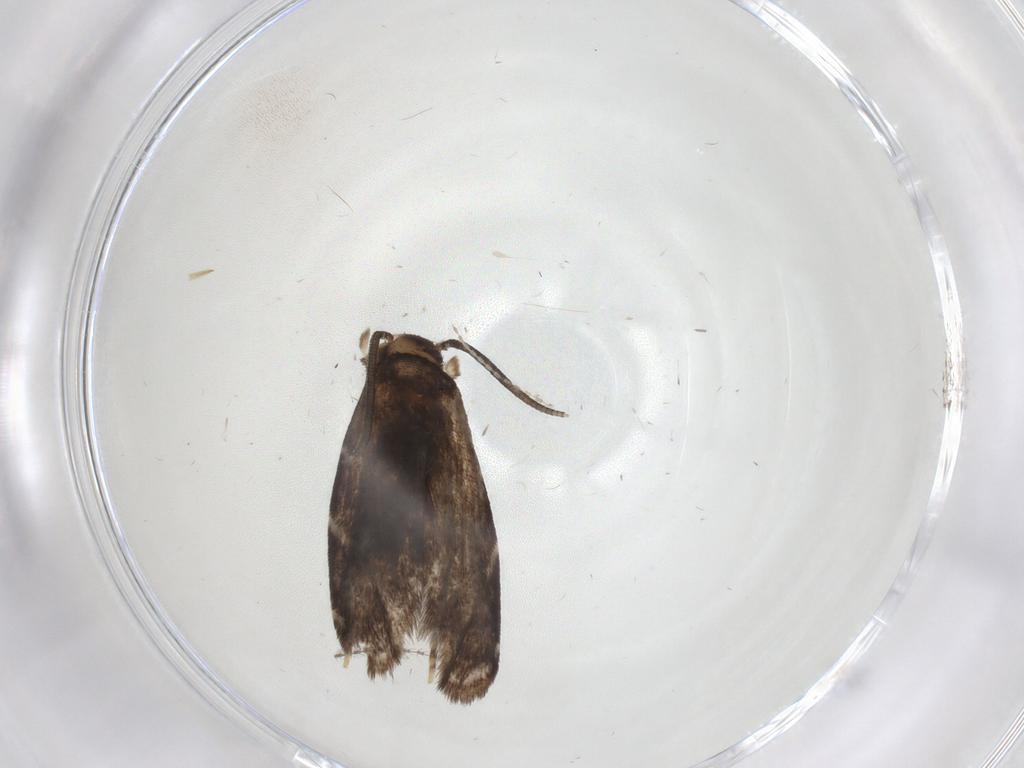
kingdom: Animalia
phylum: Arthropoda
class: Insecta
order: Lepidoptera
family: Dryadaulidae
